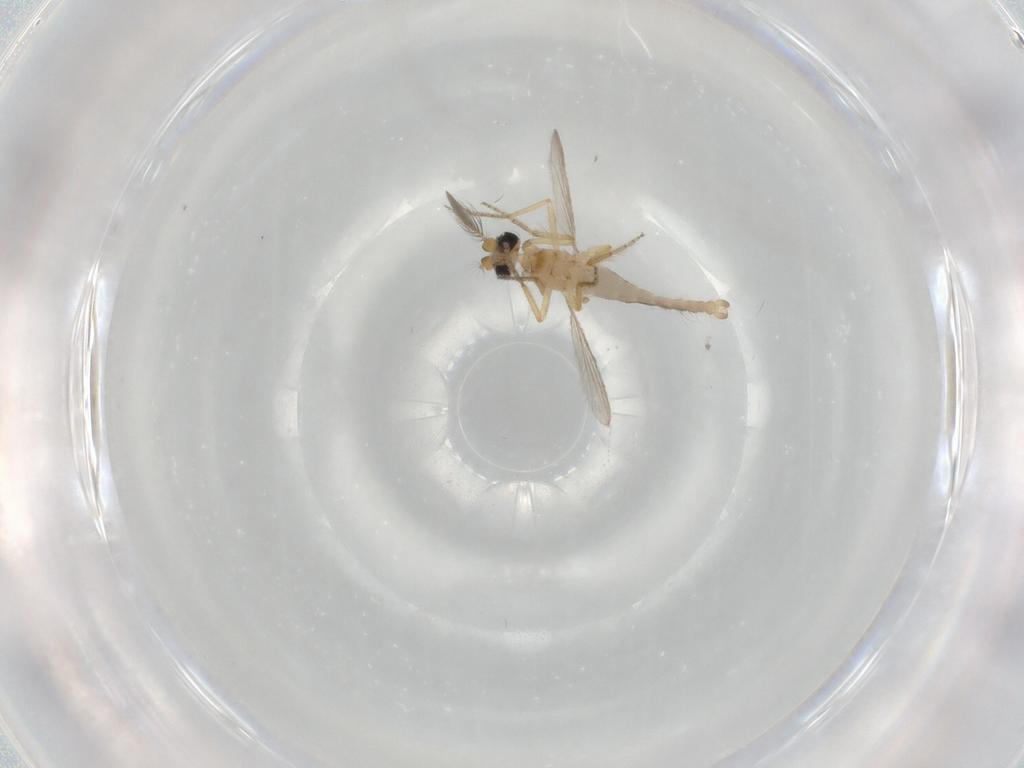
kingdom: Animalia
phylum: Arthropoda
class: Insecta
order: Diptera
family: Ceratopogonidae
